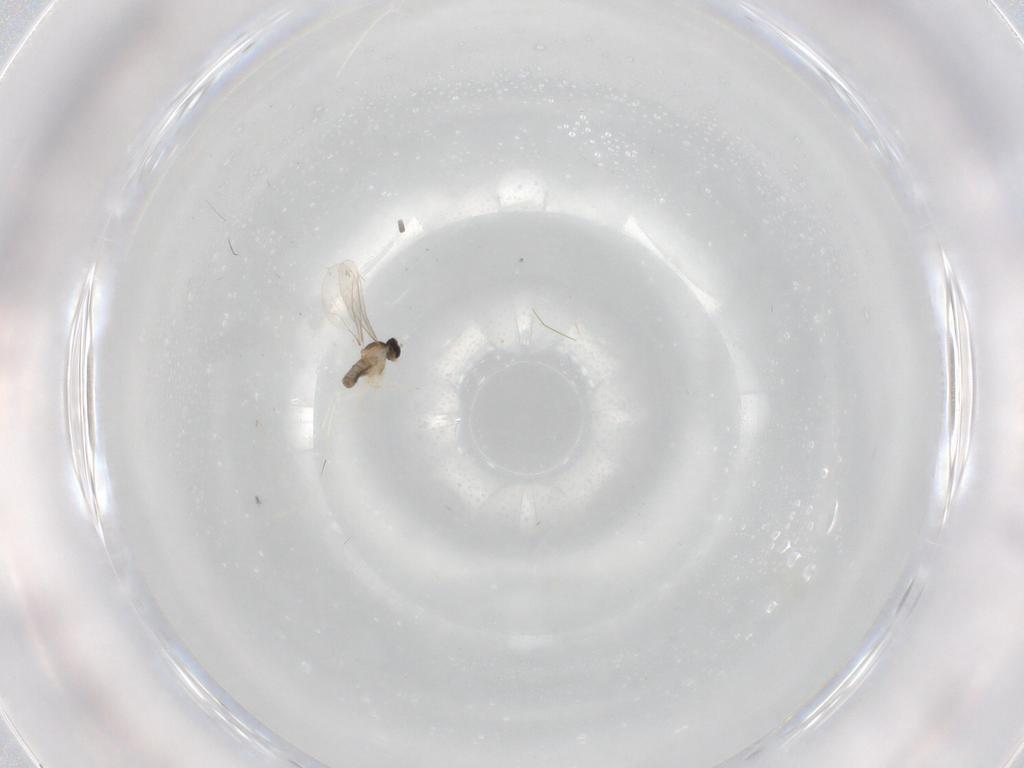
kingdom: Animalia
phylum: Arthropoda
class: Insecta
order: Diptera
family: Cecidomyiidae
